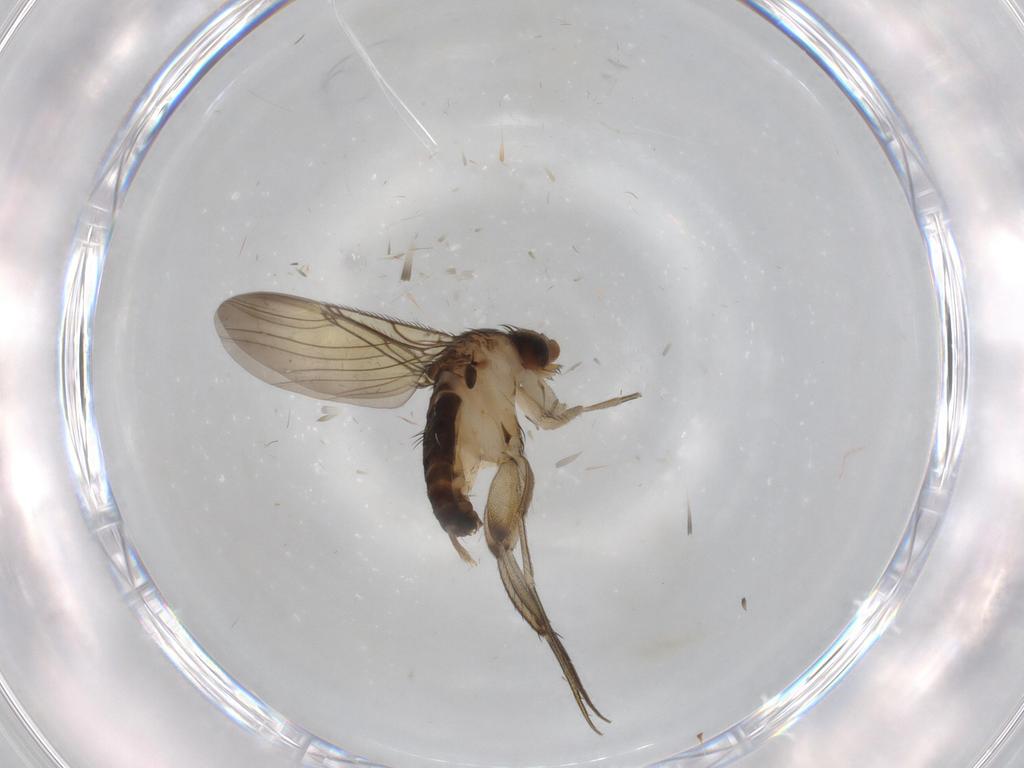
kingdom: Animalia
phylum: Arthropoda
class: Insecta
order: Diptera
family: Phoridae
